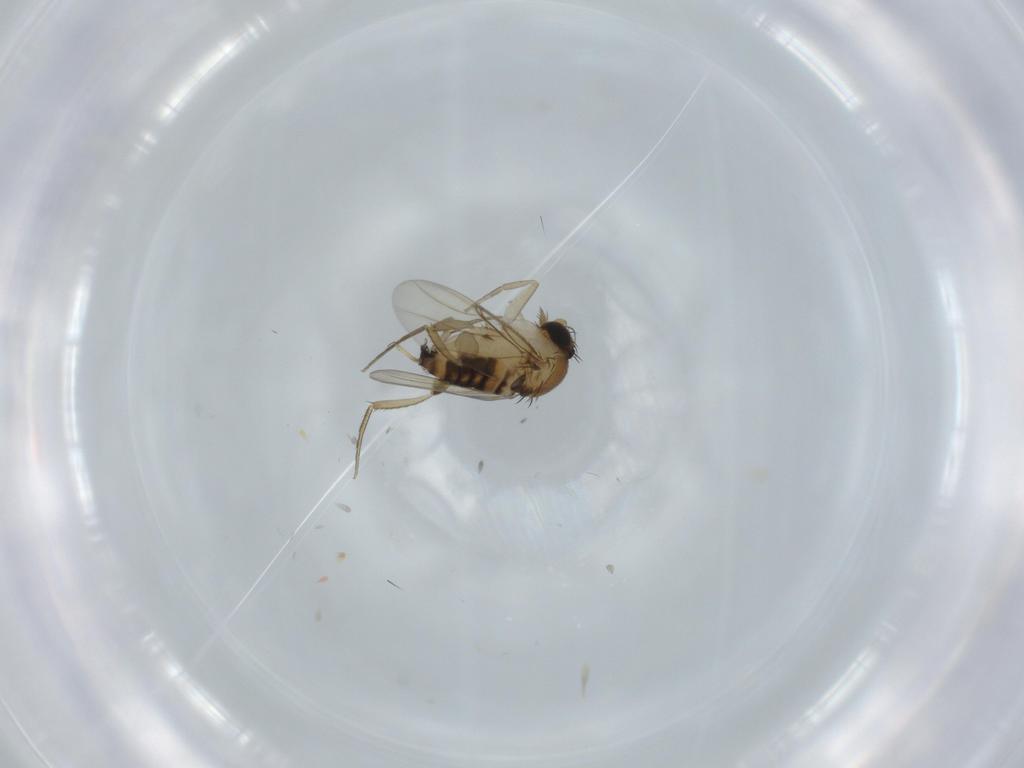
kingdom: Animalia
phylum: Arthropoda
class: Insecta
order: Diptera
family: Phoridae
